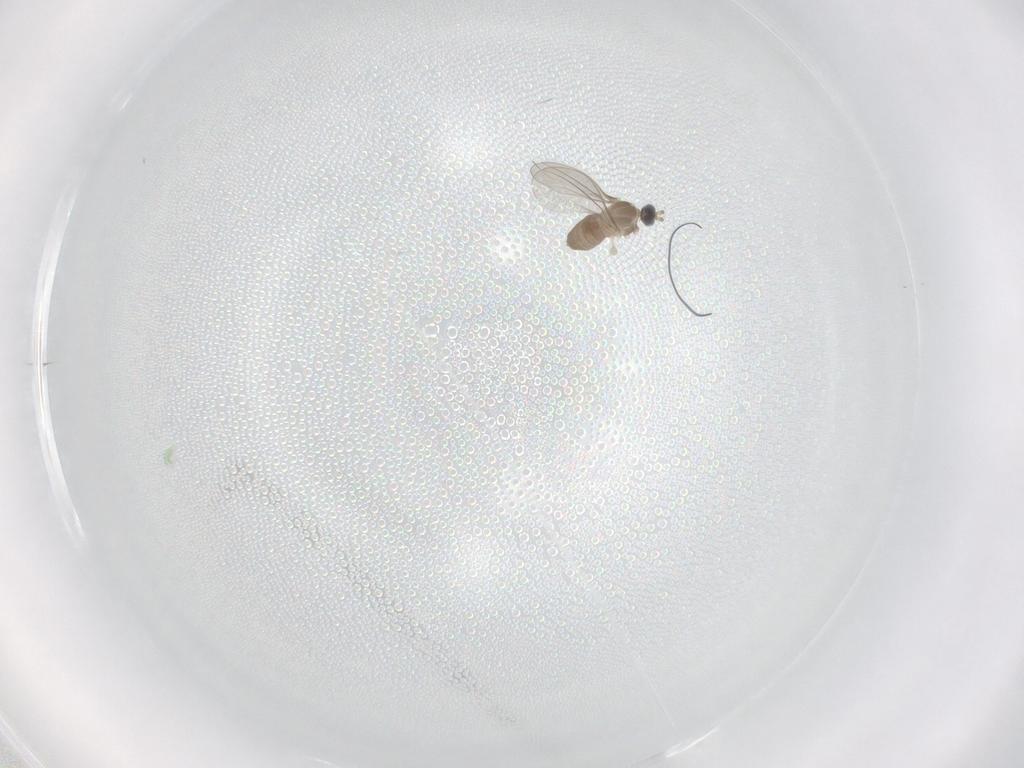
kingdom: Animalia
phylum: Arthropoda
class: Insecta
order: Diptera
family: Cecidomyiidae
